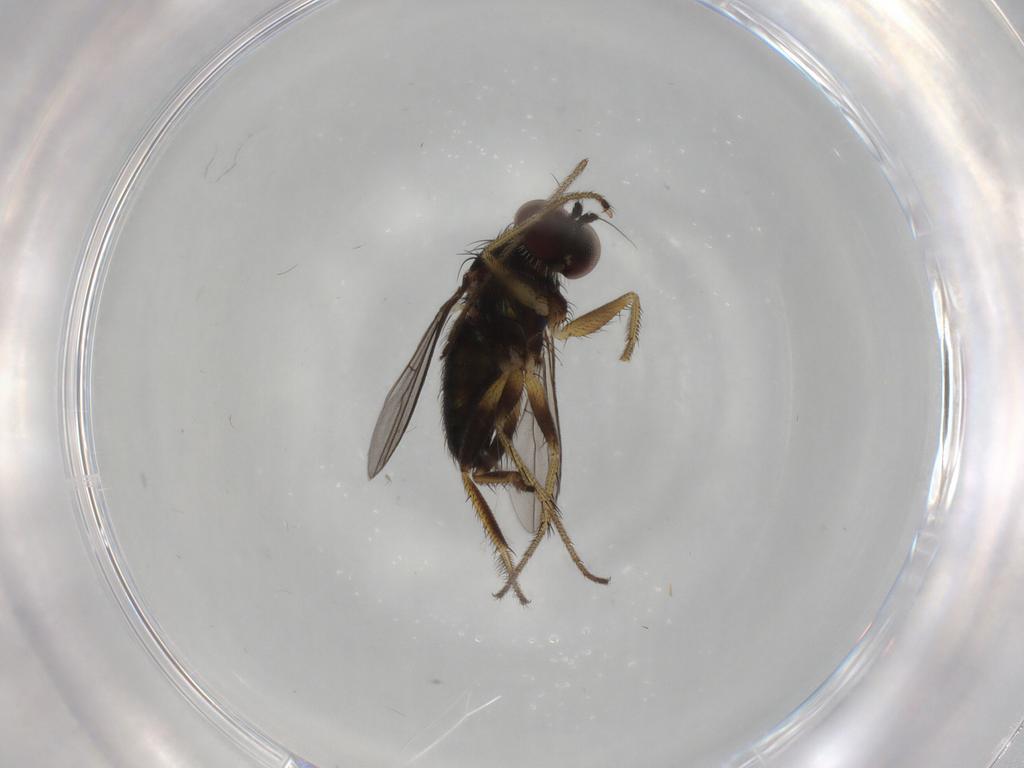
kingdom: Animalia
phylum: Arthropoda
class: Insecta
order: Diptera
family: Dolichopodidae
